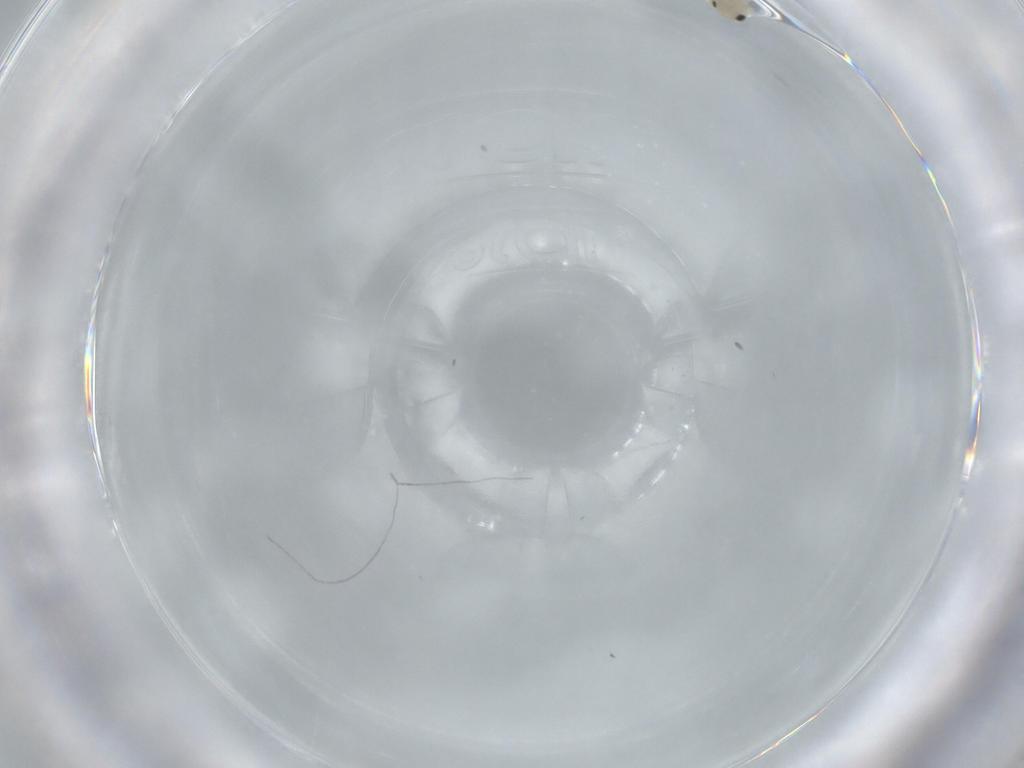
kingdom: Animalia
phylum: Arthropoda
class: Insecta
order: Psocodea
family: Caeciliusidae
